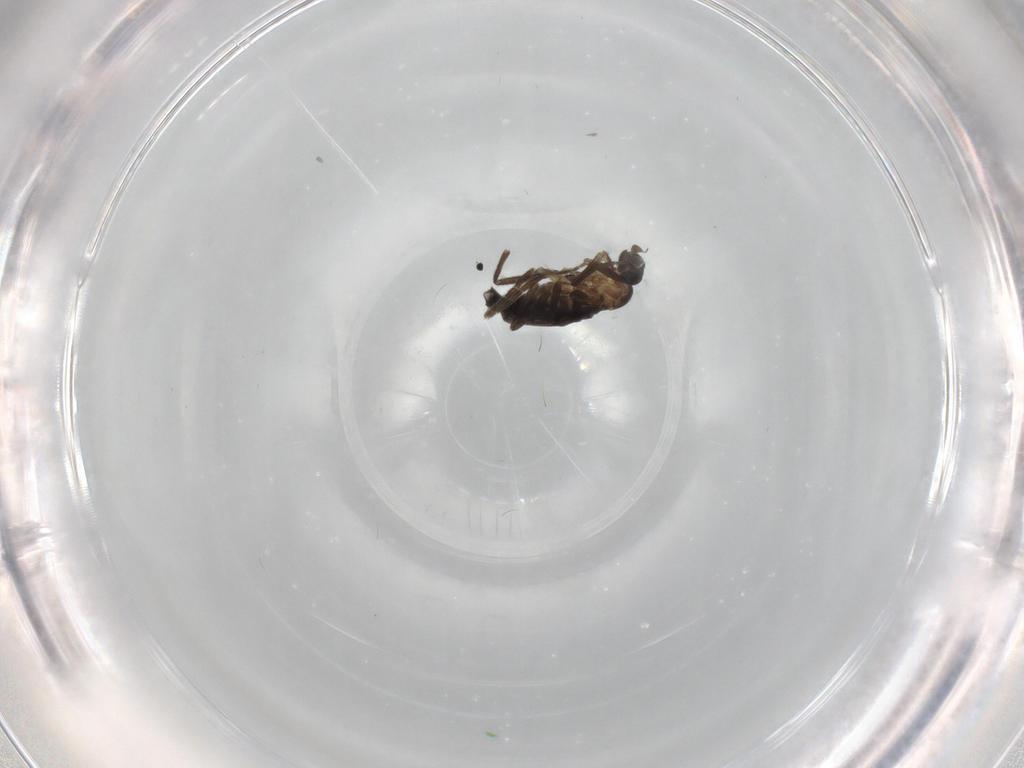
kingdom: Animalia
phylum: Arthropoda
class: Insecta
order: Diptera
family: Phoridae
